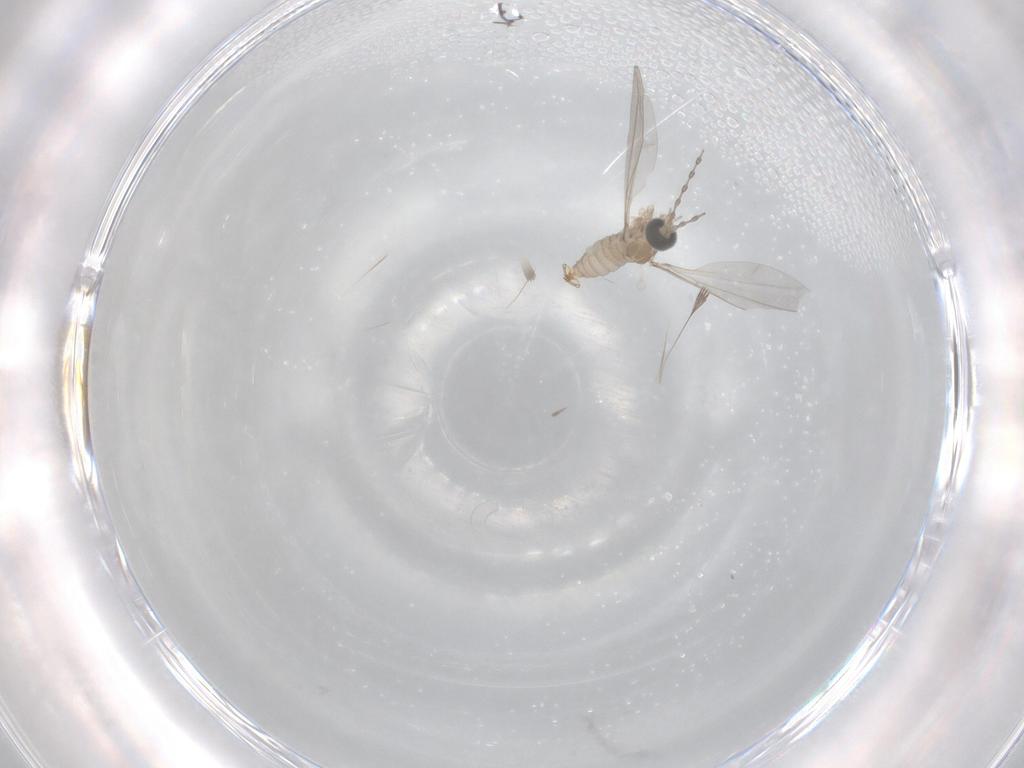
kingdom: Animalia
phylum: Arthropoda
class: Insecta
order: Diptera
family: Cecidomyiidae
